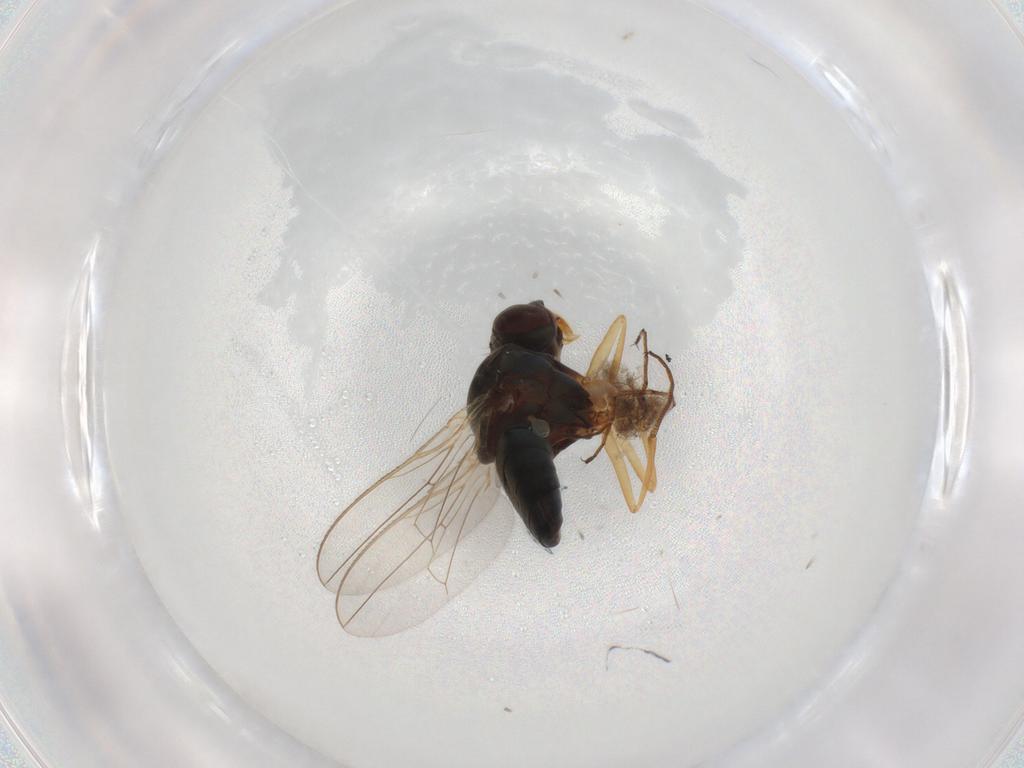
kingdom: Animalia
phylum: Arthropoda
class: Insecta
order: Diptera
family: Ephydridae
